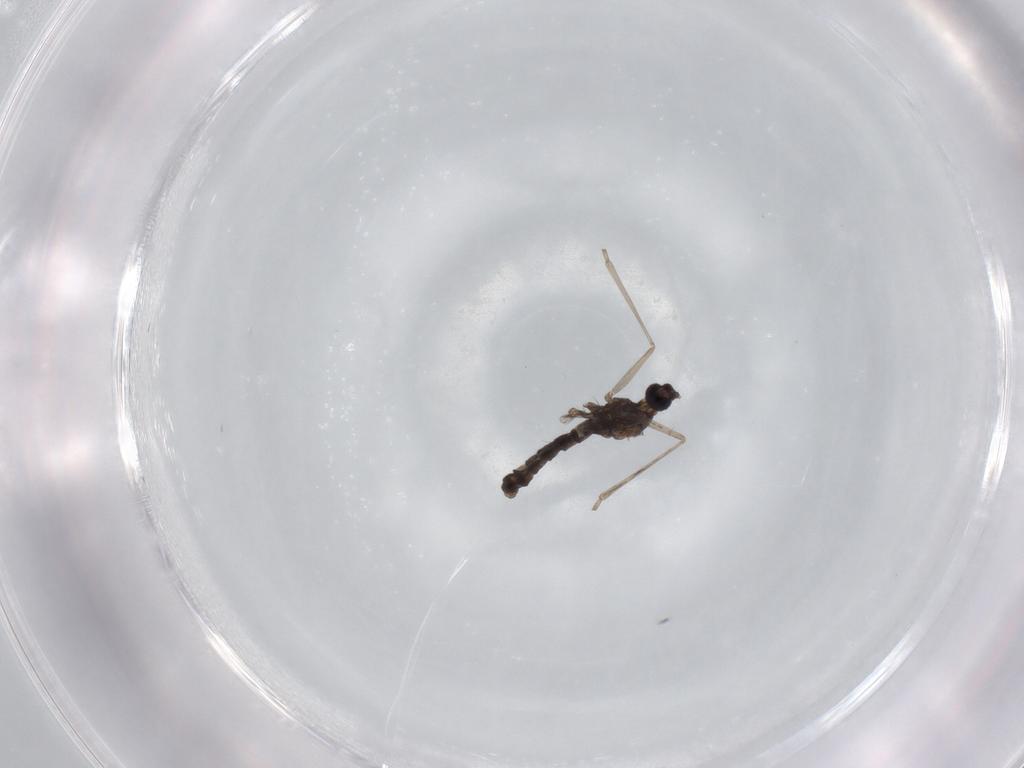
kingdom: Animalia
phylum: Arthropoda
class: Insecta
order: Diptera
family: Cecidomyiidae
